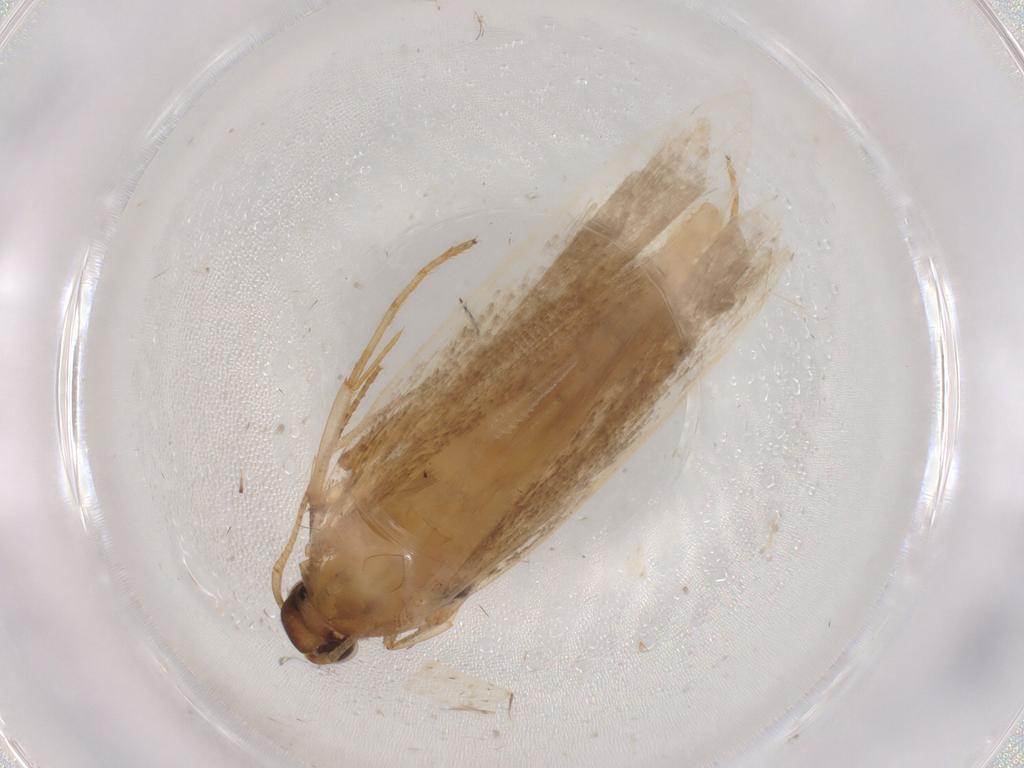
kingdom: Animalia
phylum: Arthropoda
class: Insecta
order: Lepidoptera
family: Gelechiidae
